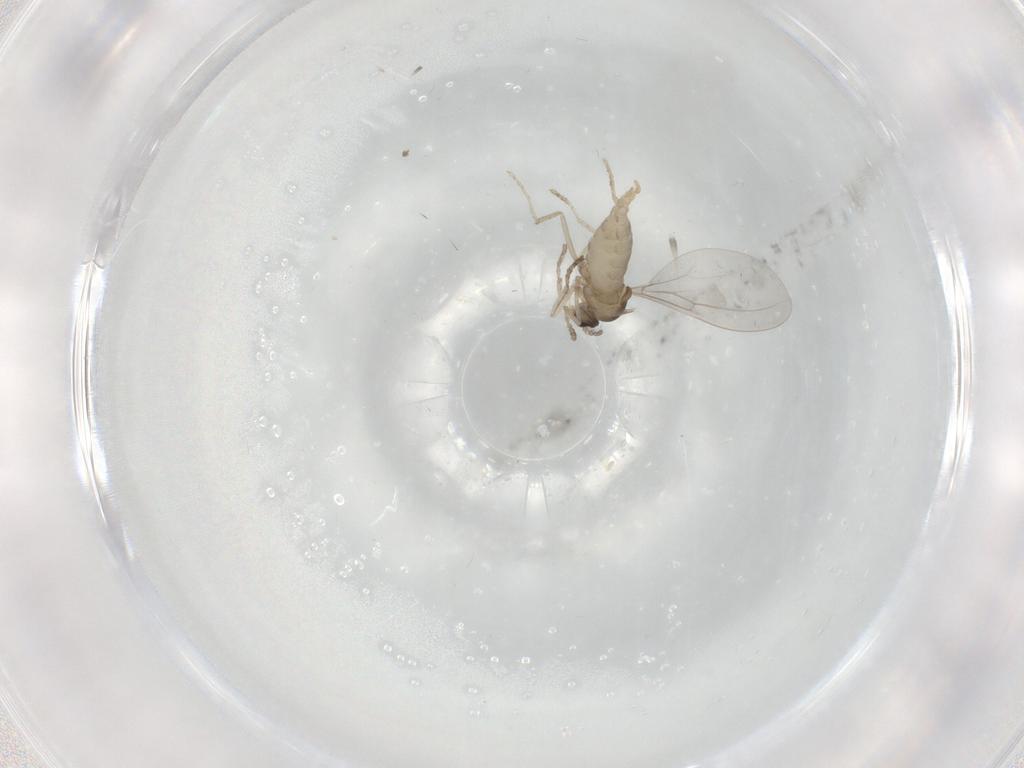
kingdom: Animalia
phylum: Arthropoda
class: Insecta
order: Diptera
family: Cecidomyiidae
